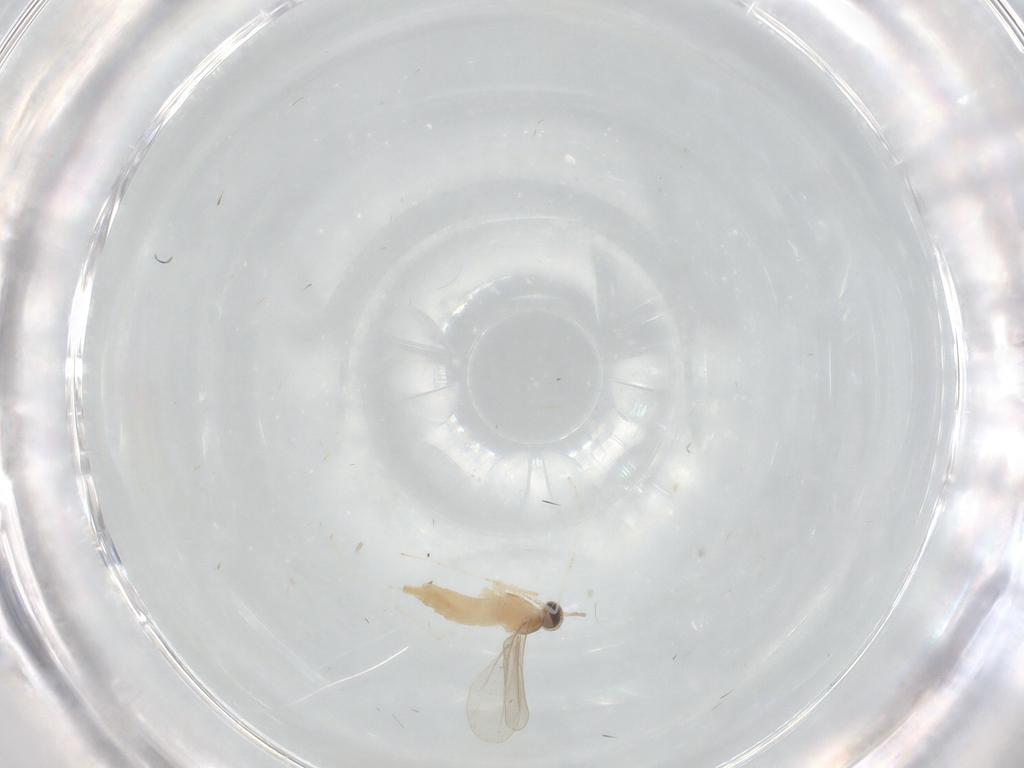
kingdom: Animalia
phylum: Arthropoda
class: Insecta
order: Diptera
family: Cecidomyiidae
